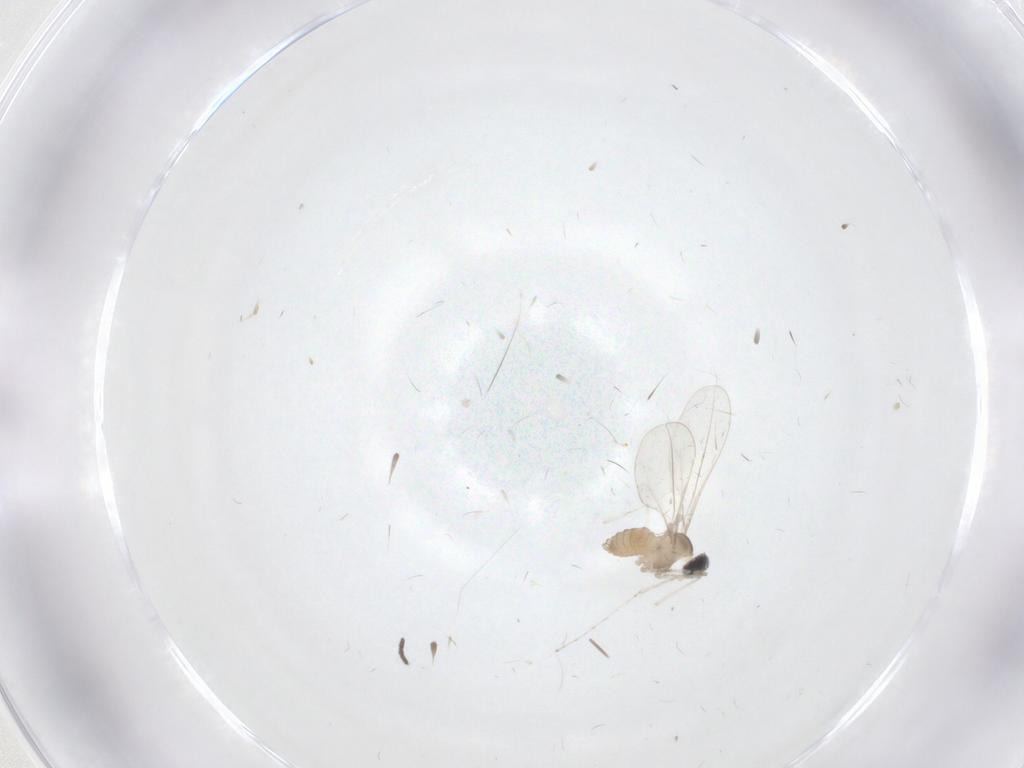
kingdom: Animalia
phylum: Arthropoda
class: Insecta
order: Diptera
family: Cecidomyiidae
